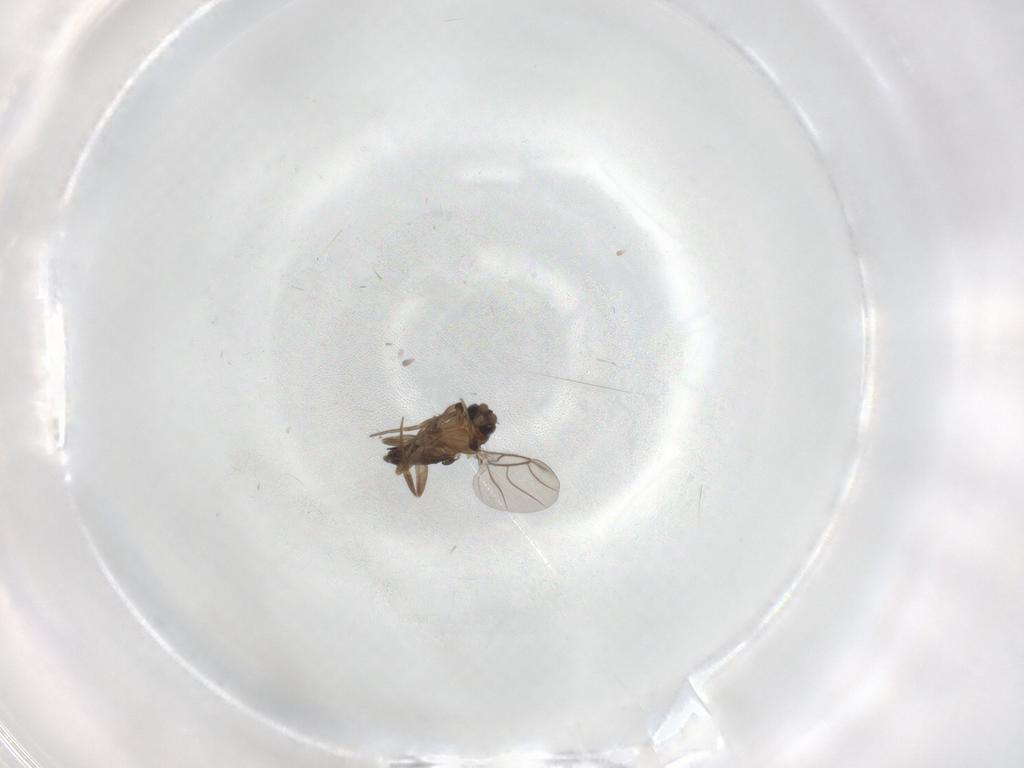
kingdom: Animalia
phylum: Arthropoda
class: Insecta
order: Diptera
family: Phoridae
